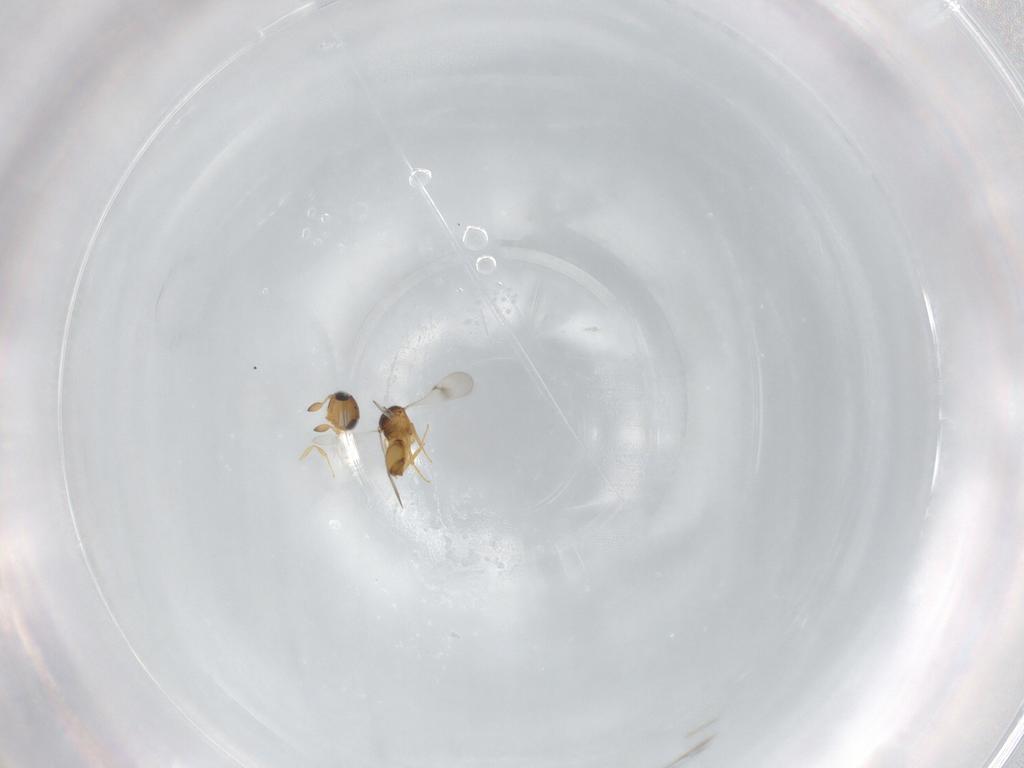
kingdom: Animalia
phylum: Arthropoda
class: Insecta
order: Hymenoptera
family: Scelionidae
